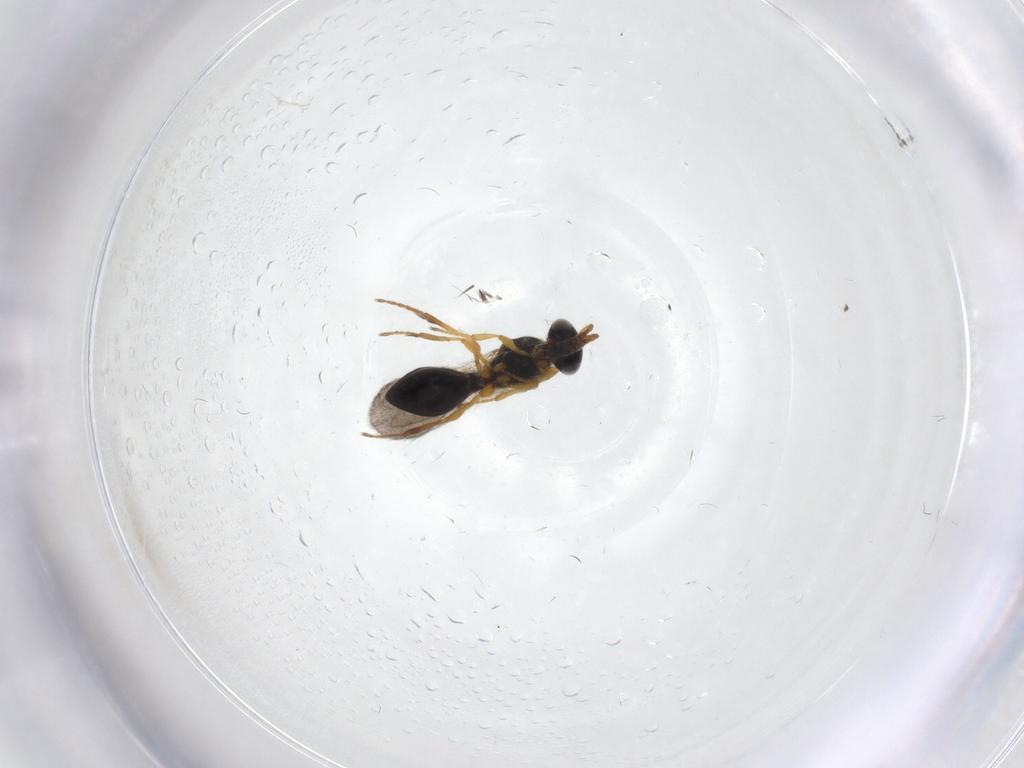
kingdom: Animalia
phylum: Arthropoda
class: Insecta
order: Hymenoptera
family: Platygastridae
